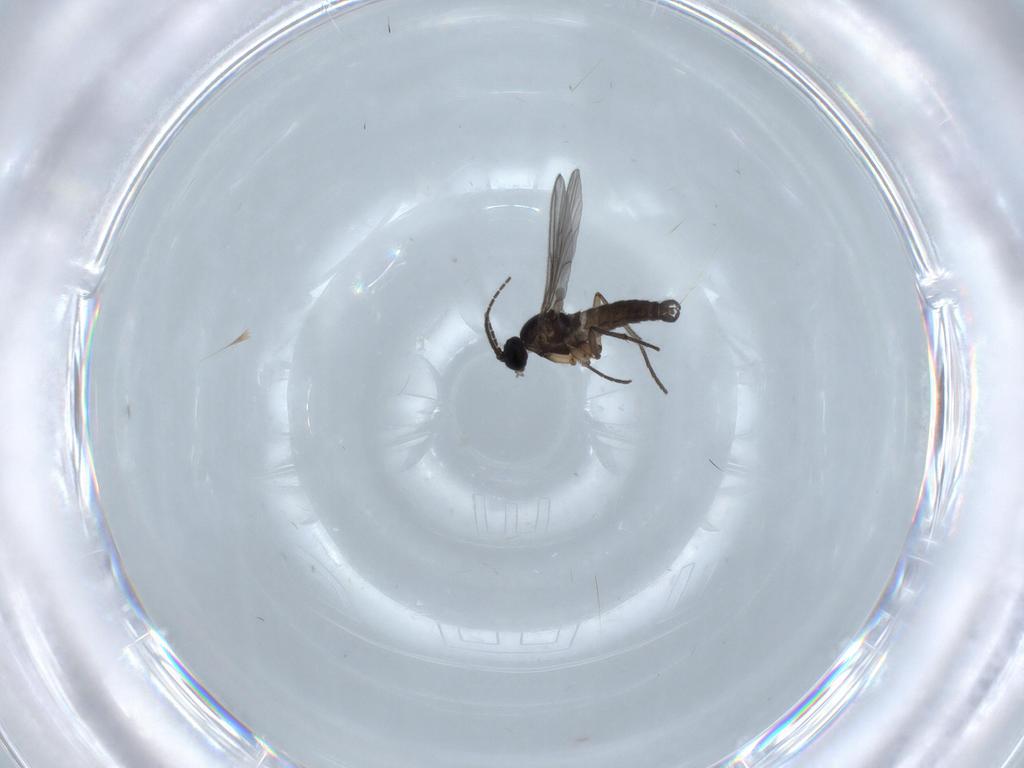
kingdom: Animalia
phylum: Arthropoda
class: Insecta
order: Diptera
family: Sciaridae
